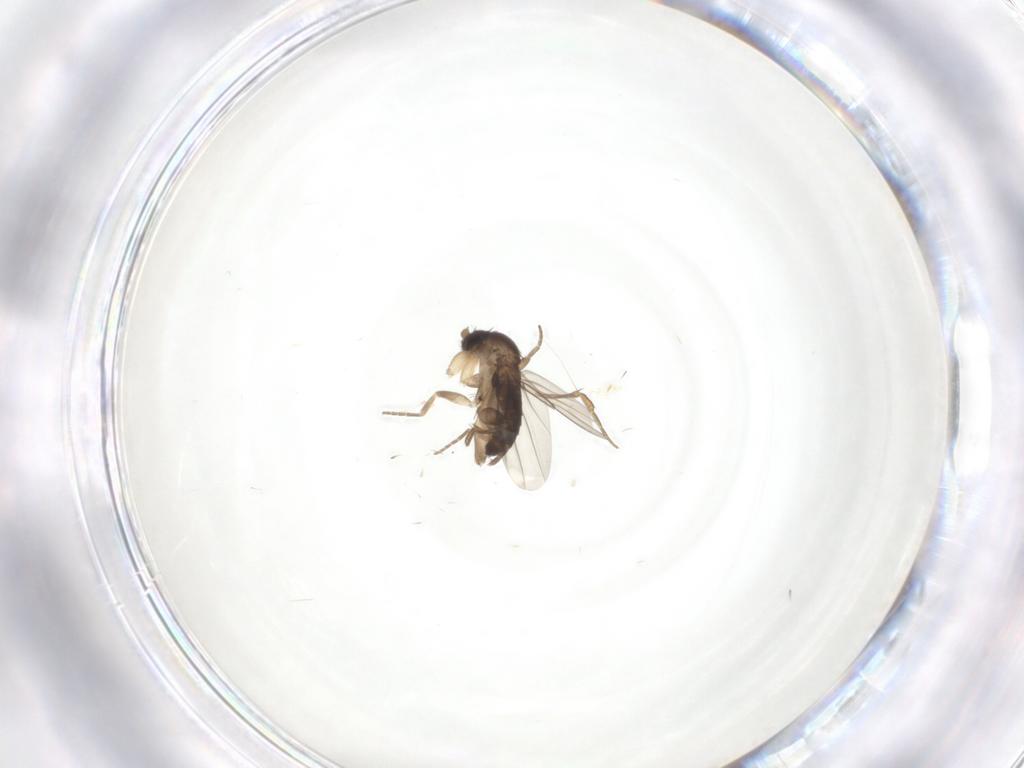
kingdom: Animalia
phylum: Arthropoda
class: Insecta
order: Diptera
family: Phoridae
